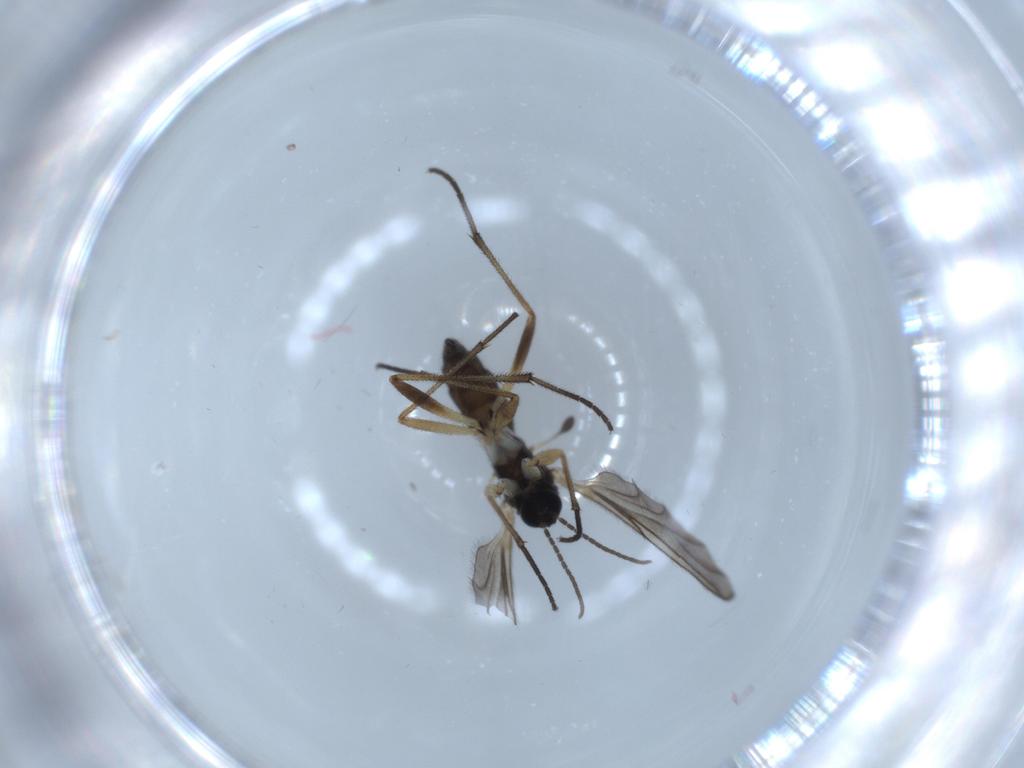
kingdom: Animalia
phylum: Arthropoda
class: Insecta
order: Diptera
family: Sciaridae
